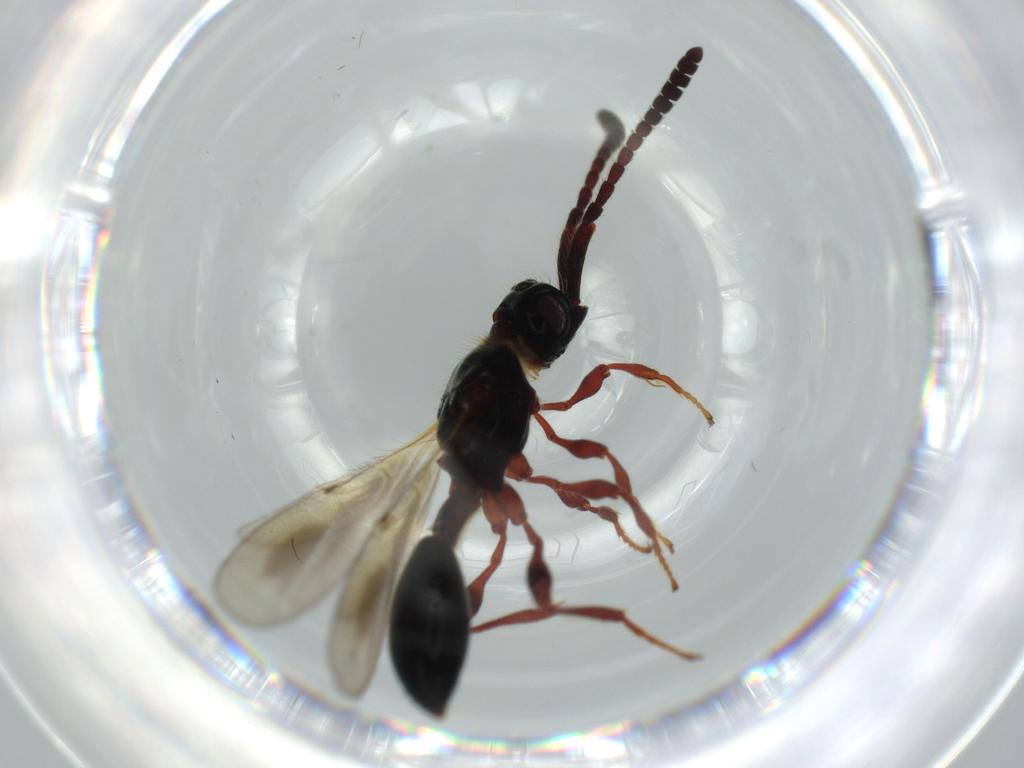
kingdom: Animalia
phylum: Arthropoda
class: Insecta
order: Hymenoptera
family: Diapriidae
